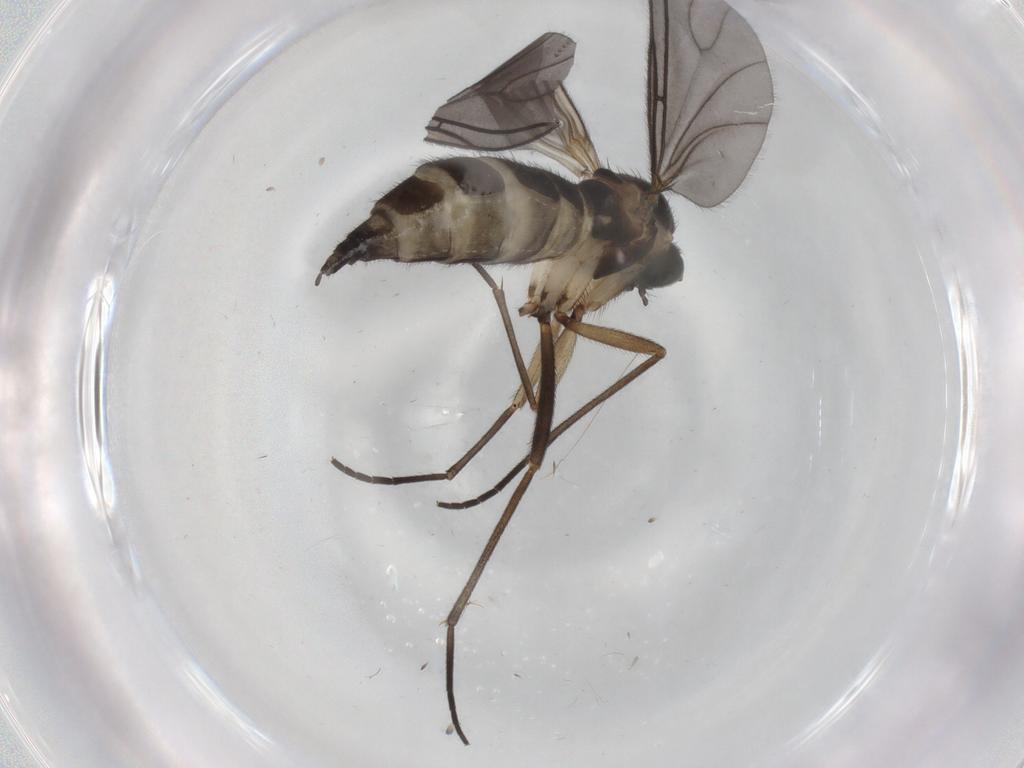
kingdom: Animalia
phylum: Arthropoda
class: Insecta
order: Diptera
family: Sciaridae
